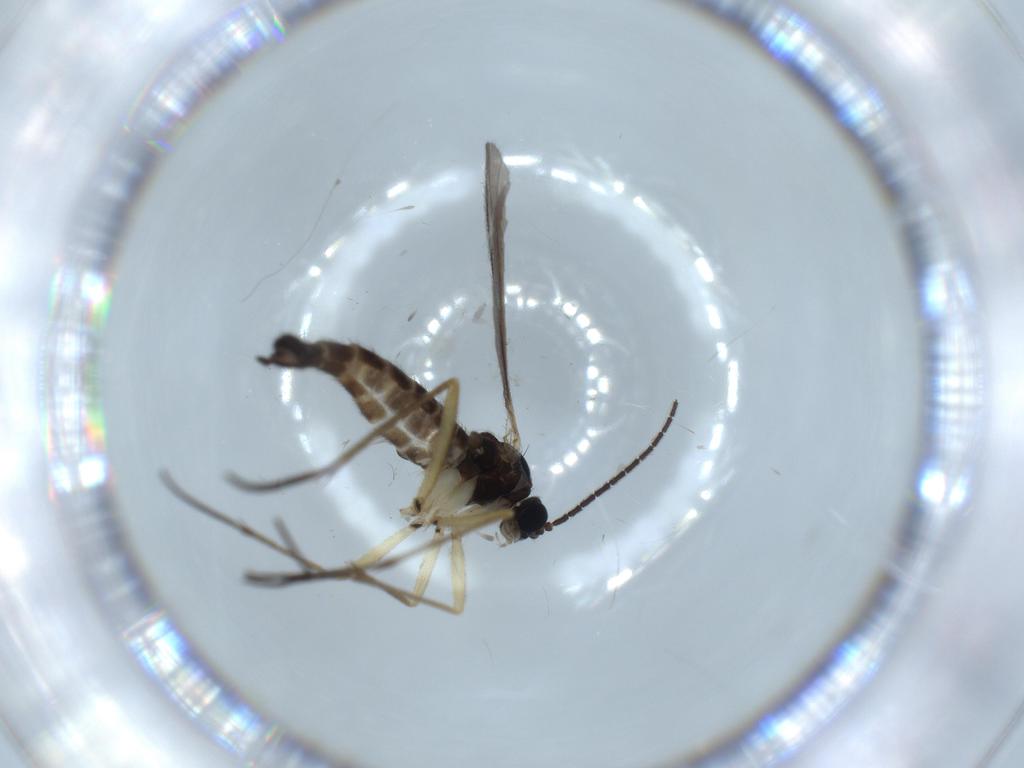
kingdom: Animalia
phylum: Arthropoda
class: Insecta
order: Diptera
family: Sciaridae
